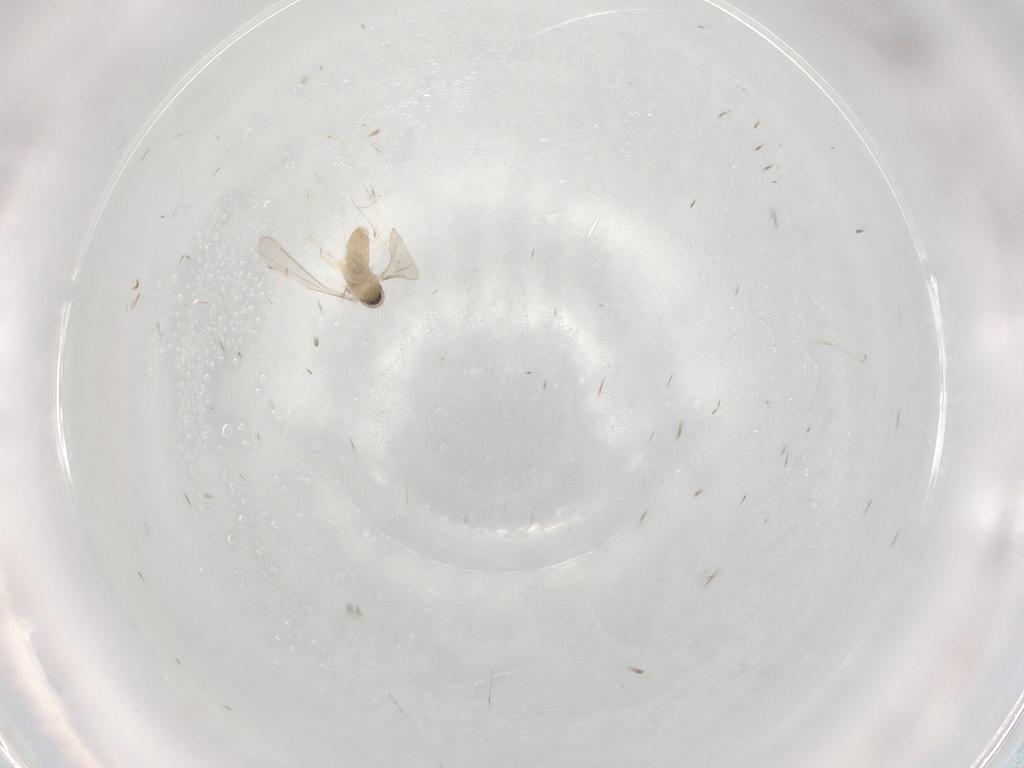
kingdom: Animalia
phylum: Arthropoda
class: Insecta
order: Diptera
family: Cecidomyiidae
